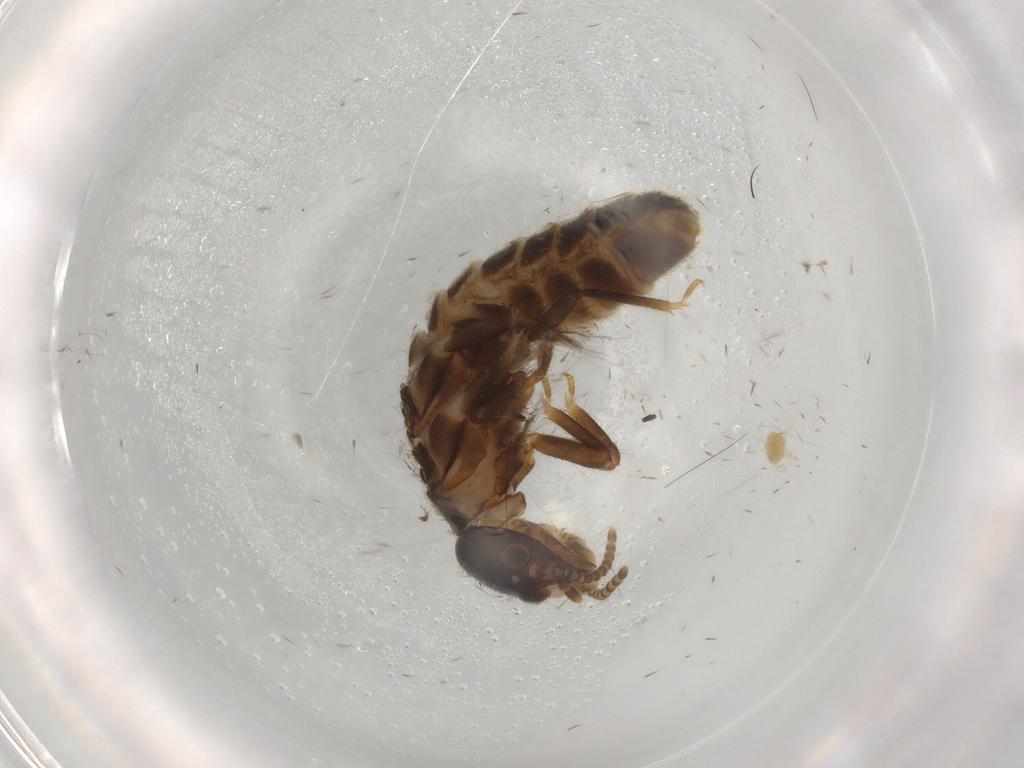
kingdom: Animalia
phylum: Arthropoda
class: Insecta
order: Blattodea
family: Termitidae
